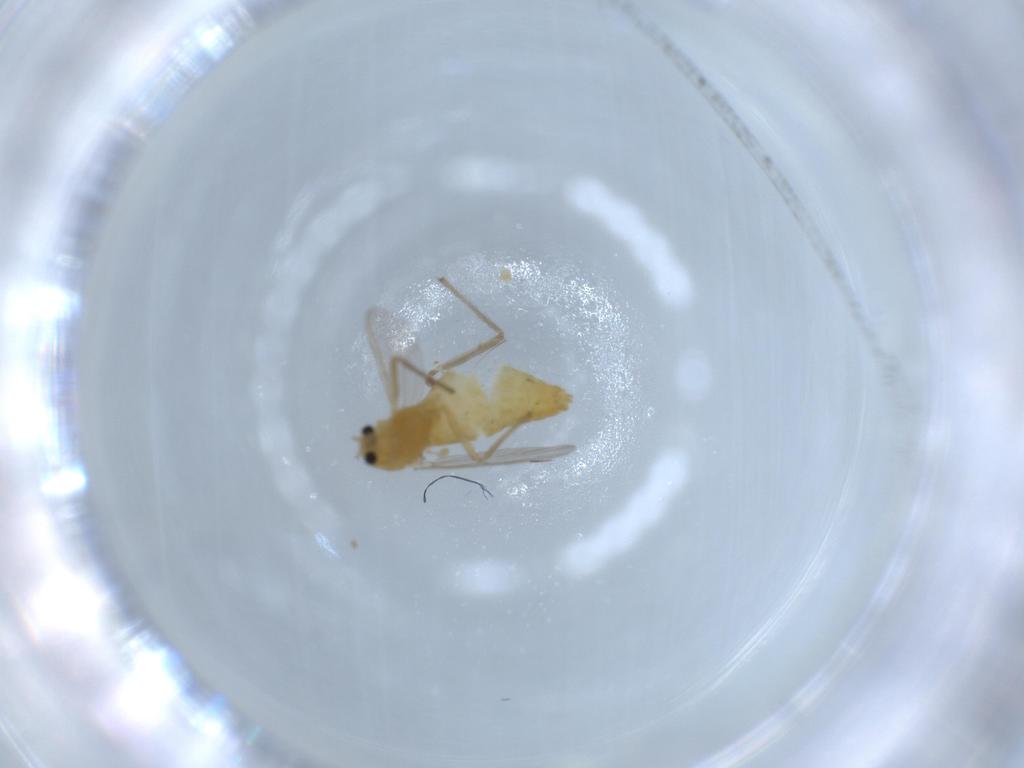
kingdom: Animalia
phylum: Arthropoda
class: Insecta
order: Diptera
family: Chironomidae
